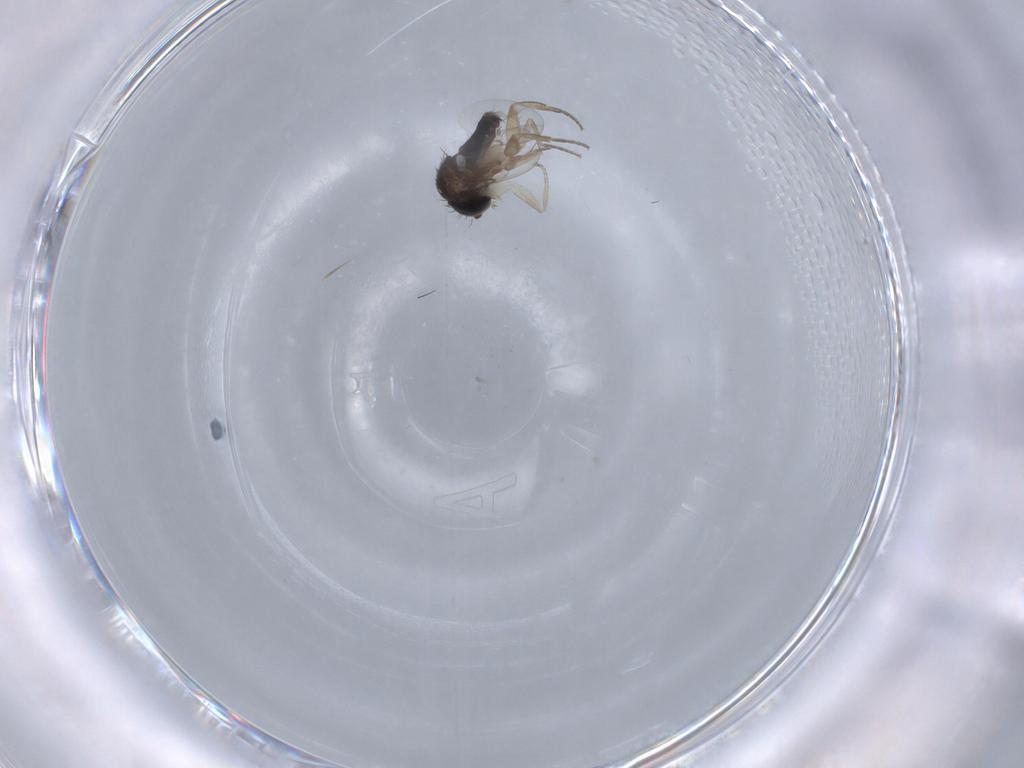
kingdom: Animalia
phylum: Arthropoda
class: Insecta
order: Diptera
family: Phoridae
